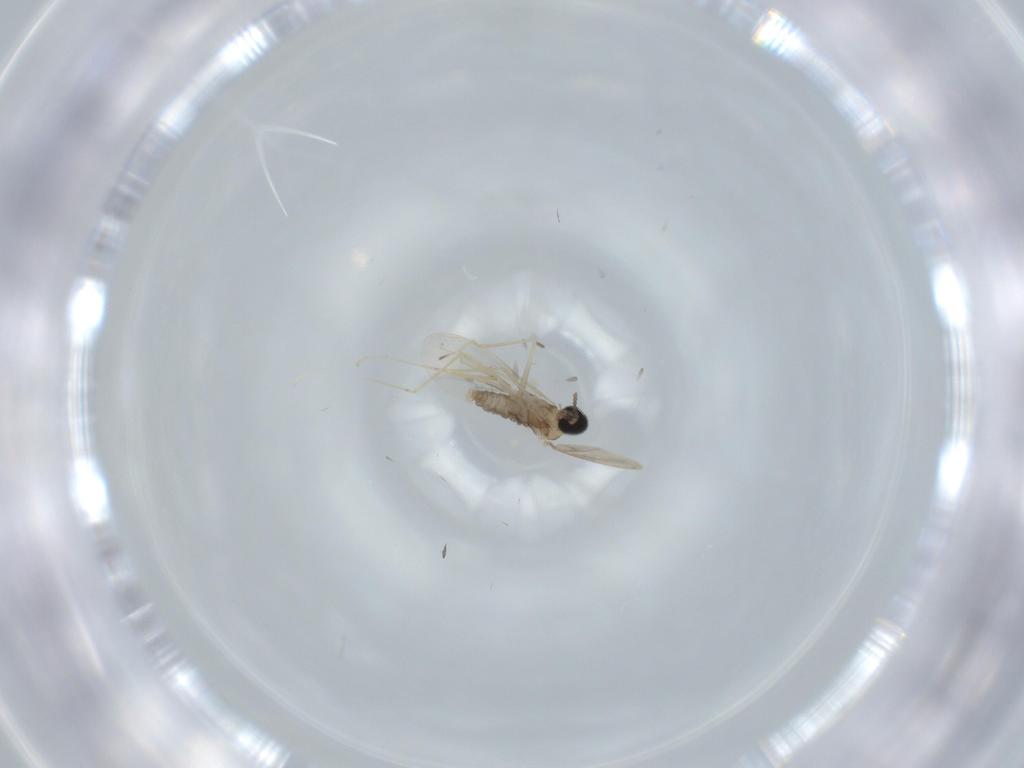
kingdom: Animalia
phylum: Arthropoda
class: Insecta
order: Diptera
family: Cecidomyiidae
